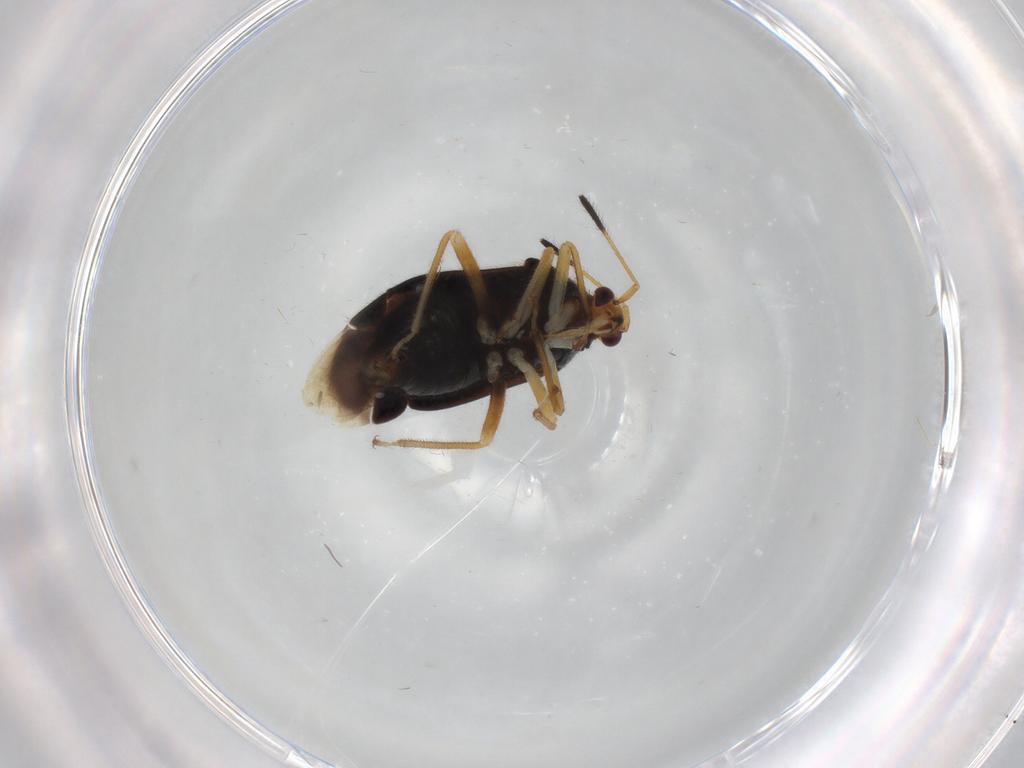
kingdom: Animalia
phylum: Arthropoda
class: Insecta
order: Hemiptera
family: Miridae
